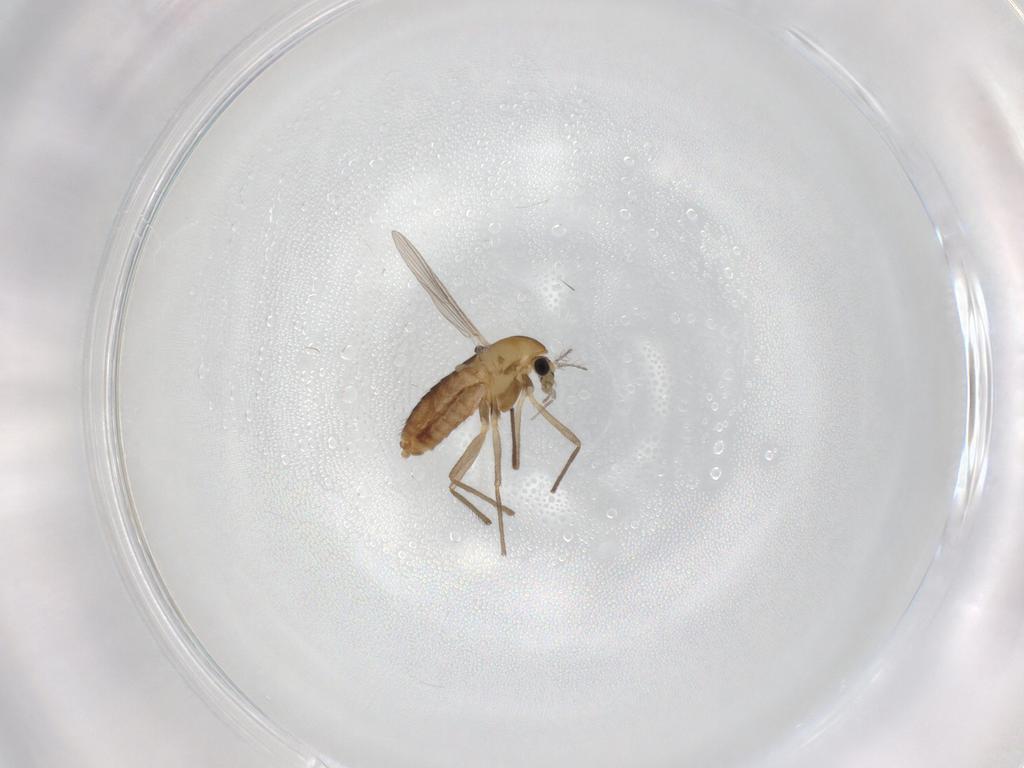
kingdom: Animalia
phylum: Arthropoda
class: Insecta
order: Diptera
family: Chironomidae
